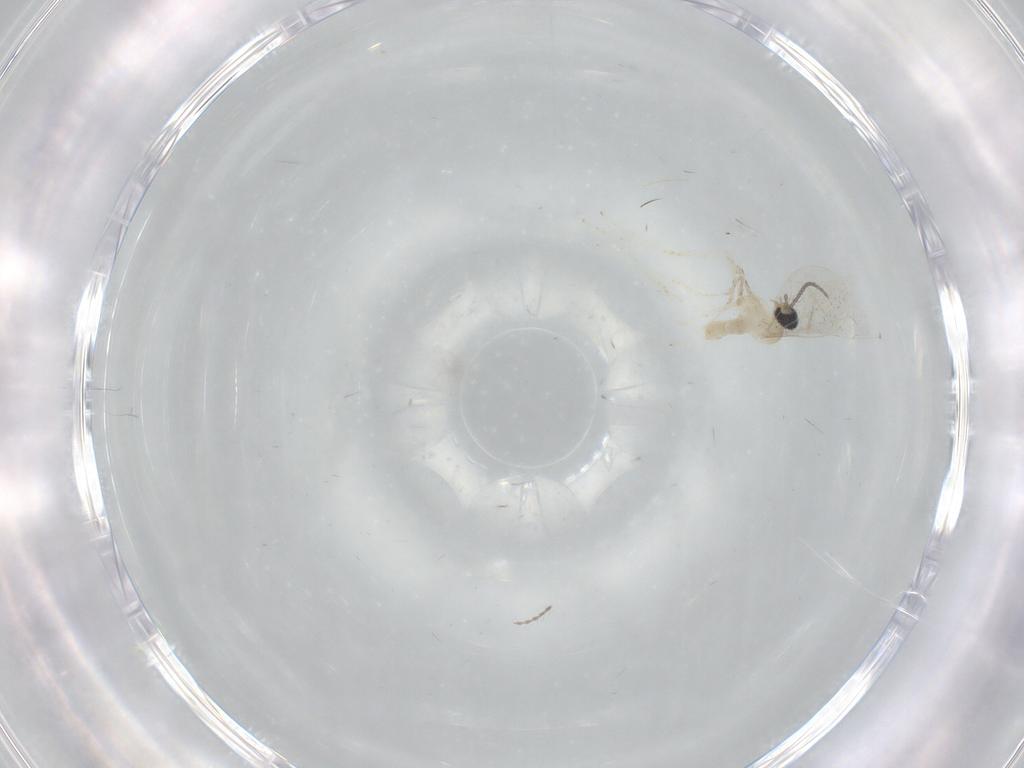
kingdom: Animalia
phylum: Arthropoda
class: Insecta
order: Diptera
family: Cecidomyiidae
